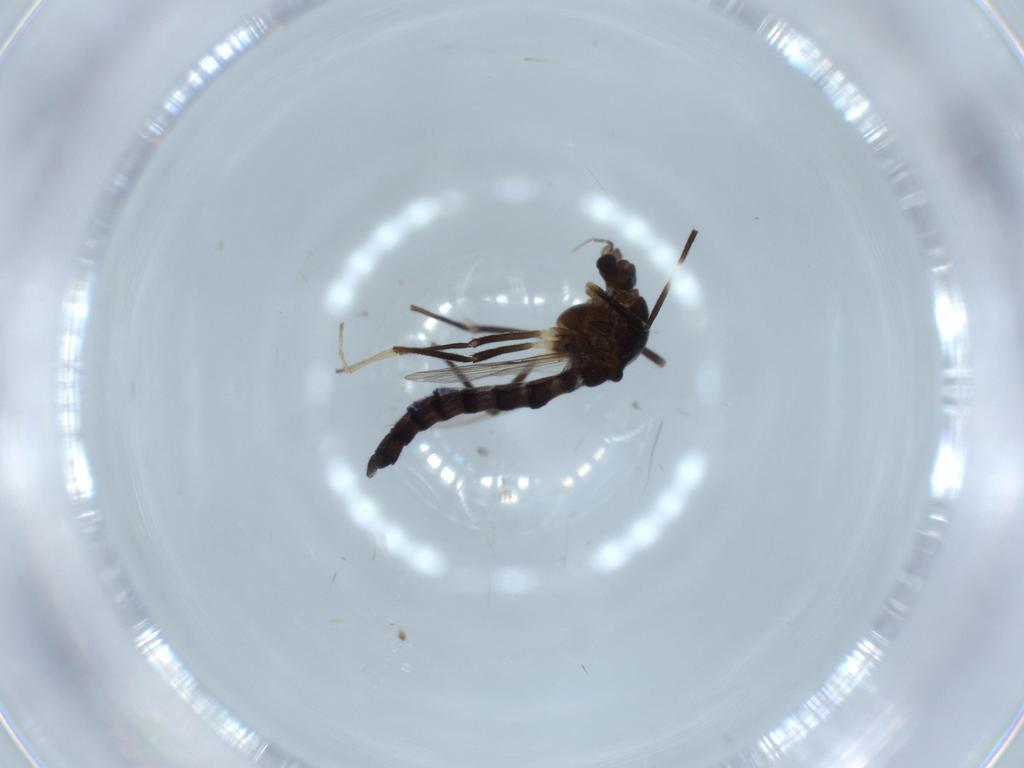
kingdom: Animalia
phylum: Arthropoda
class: Insecta
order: Diptera
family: Chironomidae
